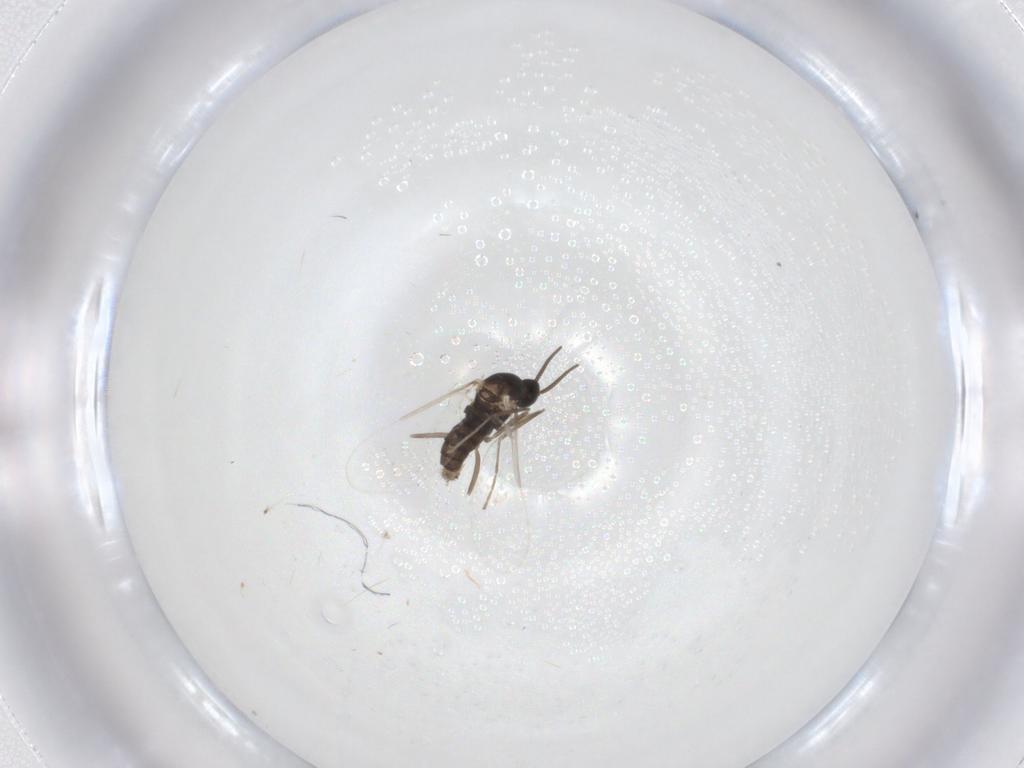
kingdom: Animalia
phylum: Arthropoda
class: Insecta
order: Diptera
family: Cecidomyiidae
